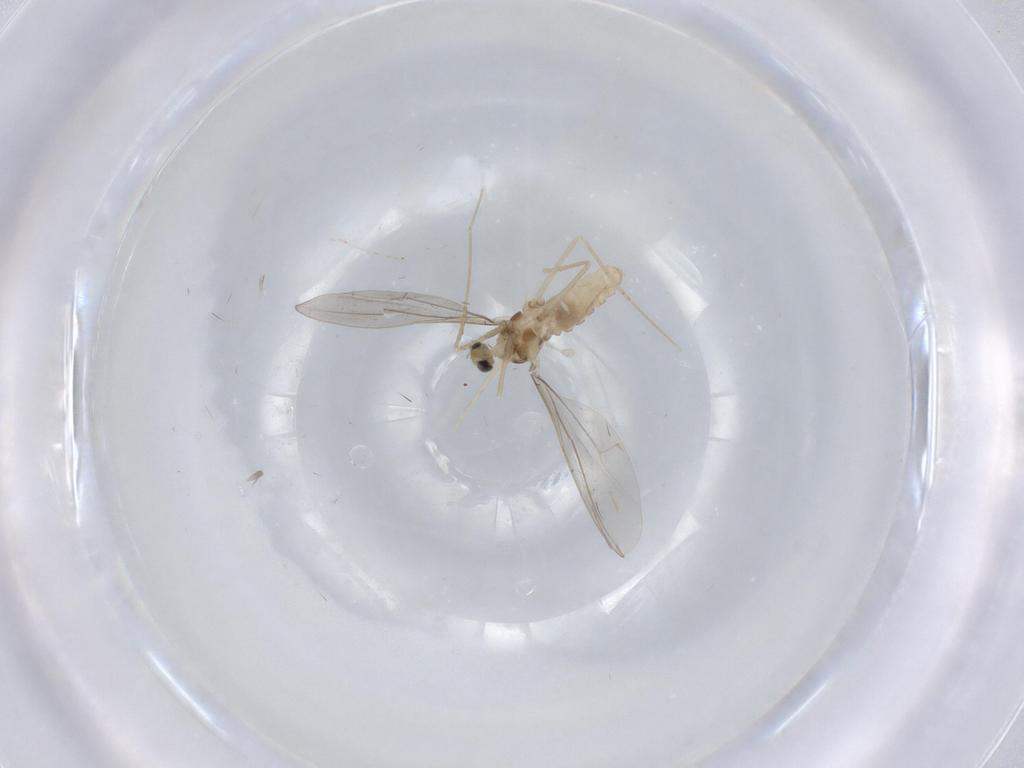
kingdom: Animalia
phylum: Arthropoda
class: Insecta
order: Diptera
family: Cecidomyiidae
